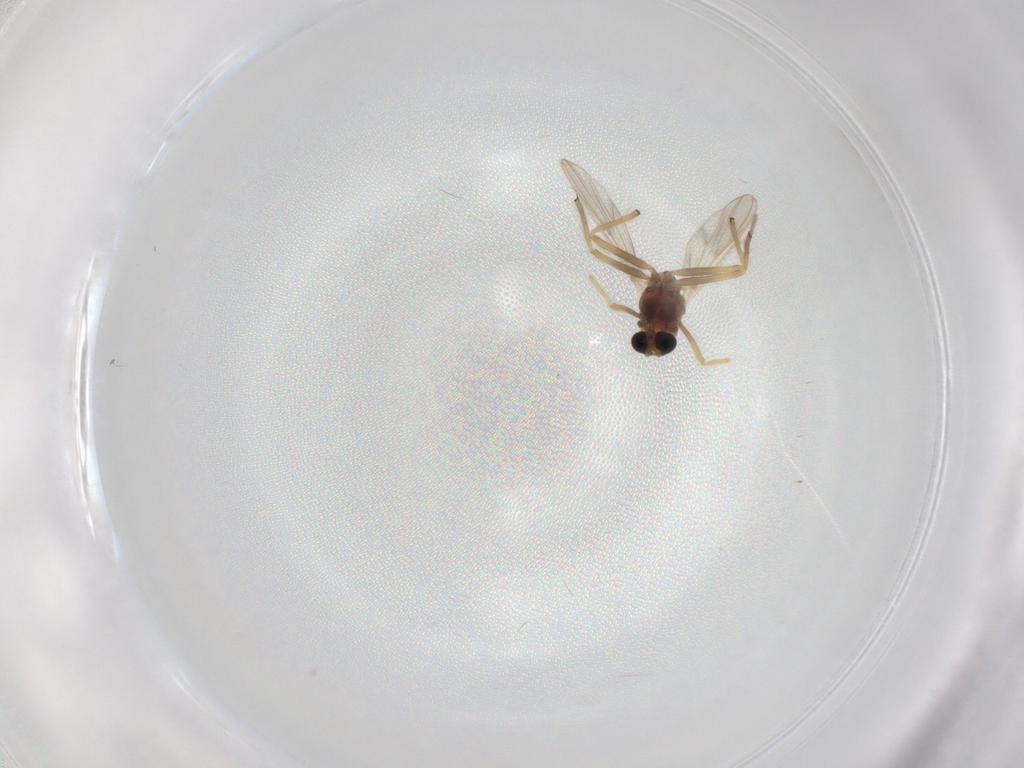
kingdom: Animalia
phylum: Arthropoda
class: Insecta
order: Diptera
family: Chironomidae
